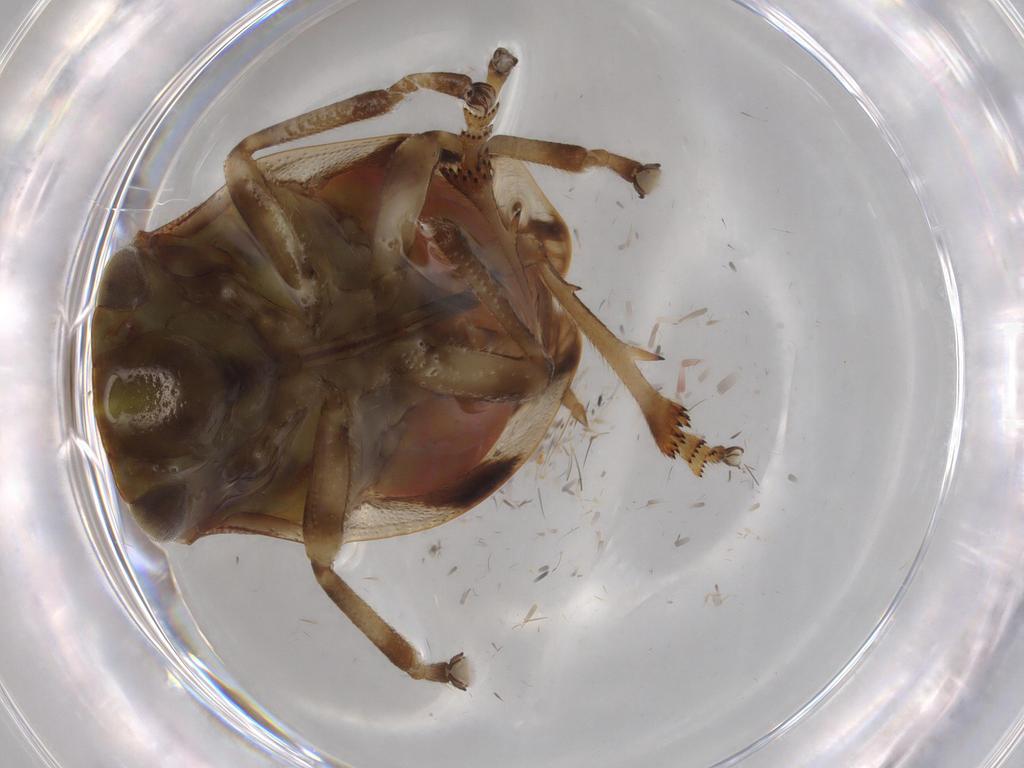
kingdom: Animalia
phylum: Arthropoda
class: Insecta
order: Hemiptera
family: Aphrophoridae
